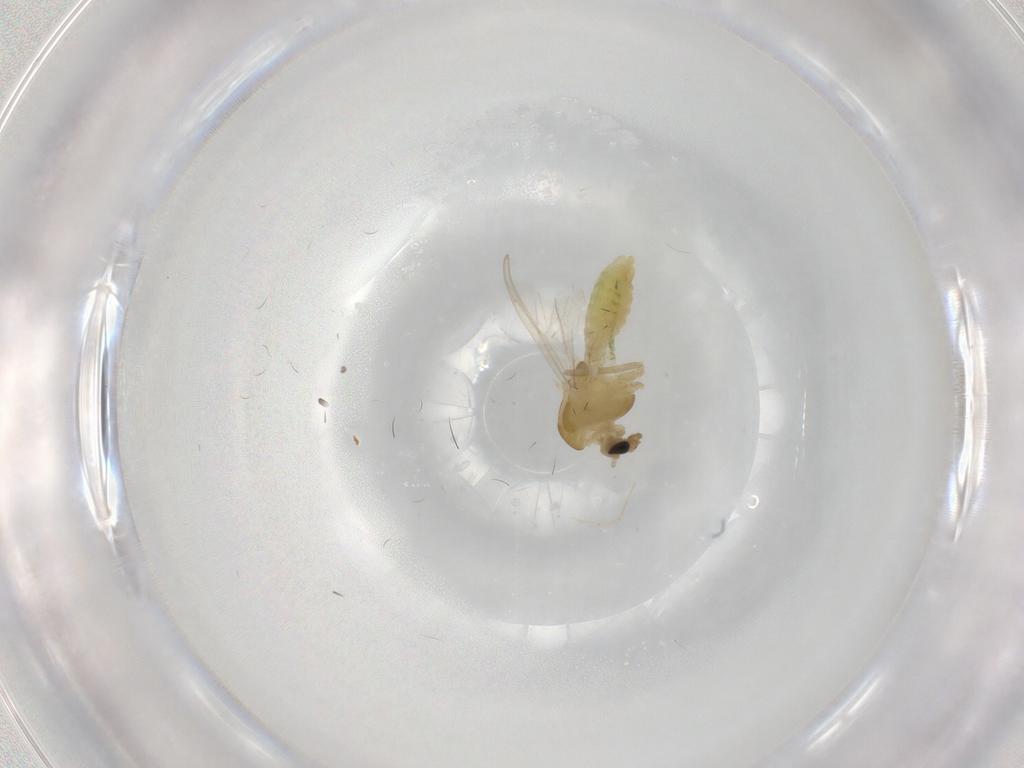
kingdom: Animalia
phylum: Arthropoda
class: Insecta
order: Diptera
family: Chironomidae
